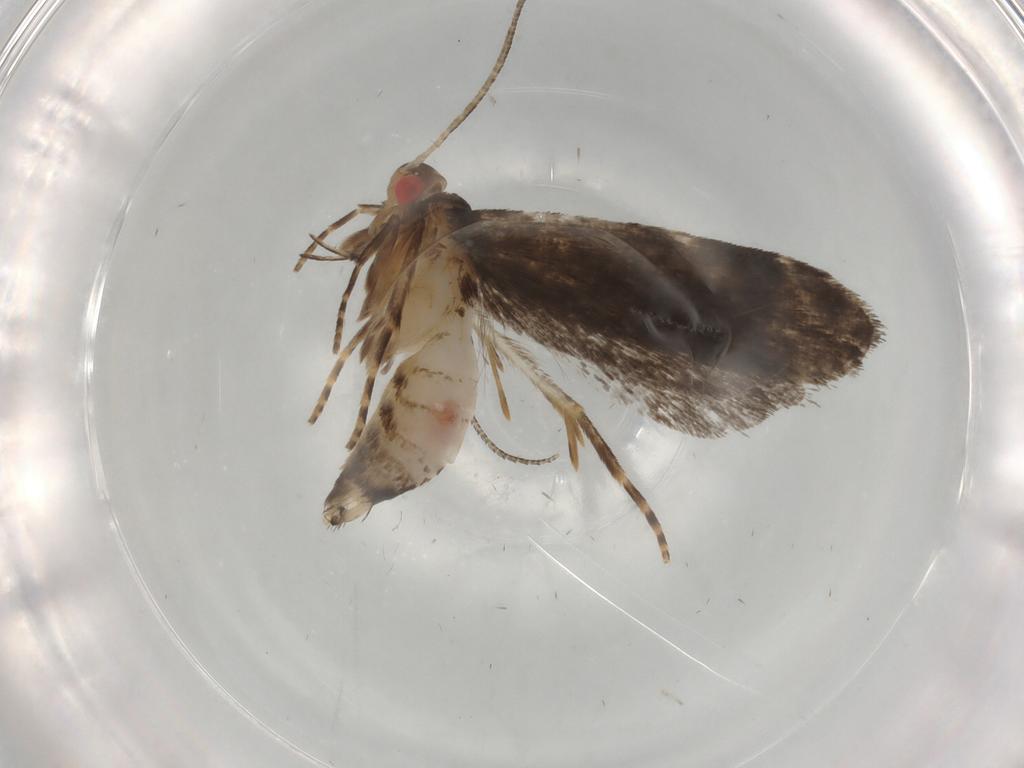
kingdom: Animalia
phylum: Arthropoda
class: Insecta
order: Lepidoptera
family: Gelechiidae
